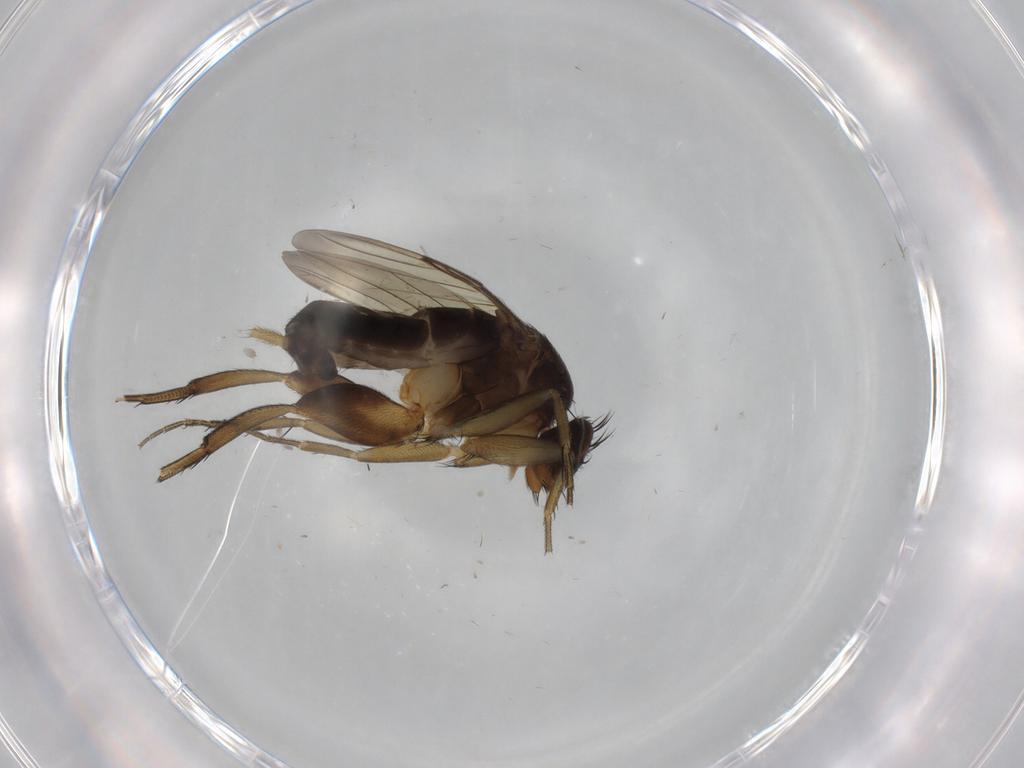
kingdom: Animalia
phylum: Arthropoda
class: Insecta
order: Diptera
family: Phoridae
